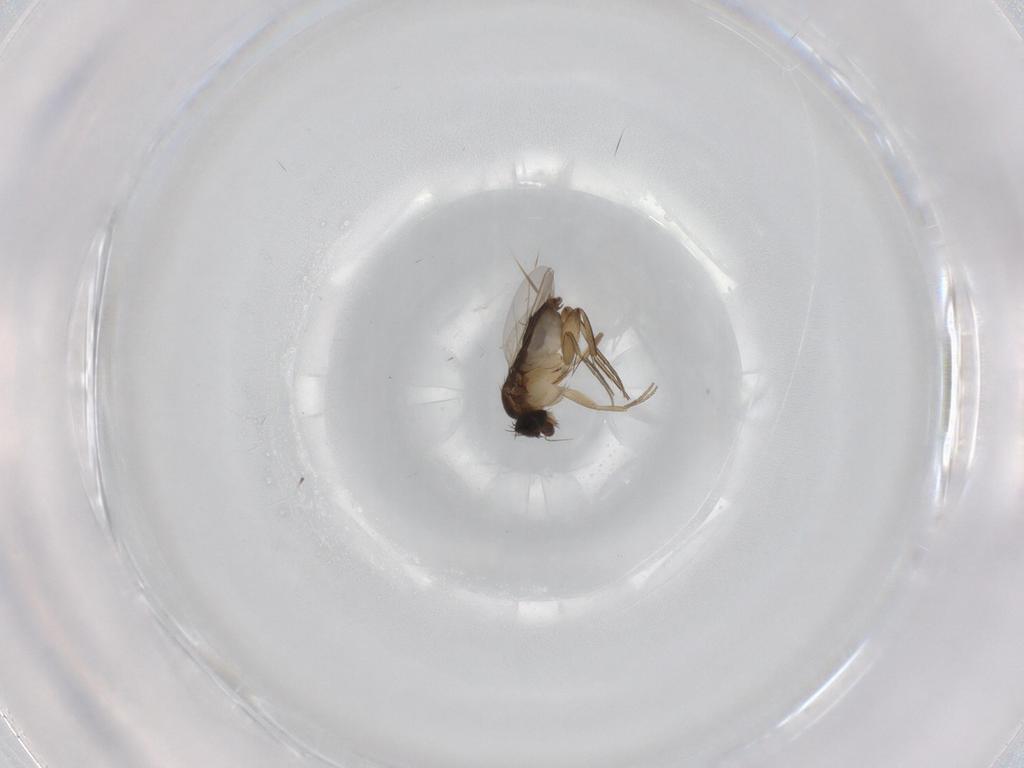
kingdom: Animalia
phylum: Arthropoda
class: Insecta
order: Diptera
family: Phoridae
